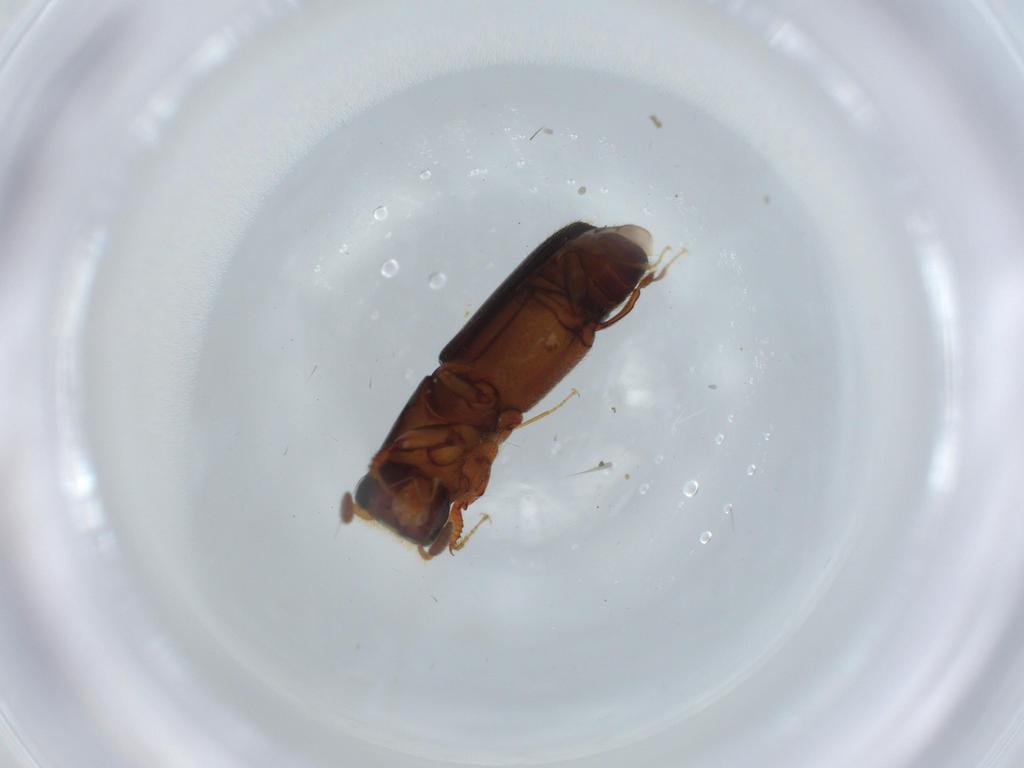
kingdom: Animalia
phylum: Arthropoda
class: Insecta
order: Coleoptera
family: Curculionidae
